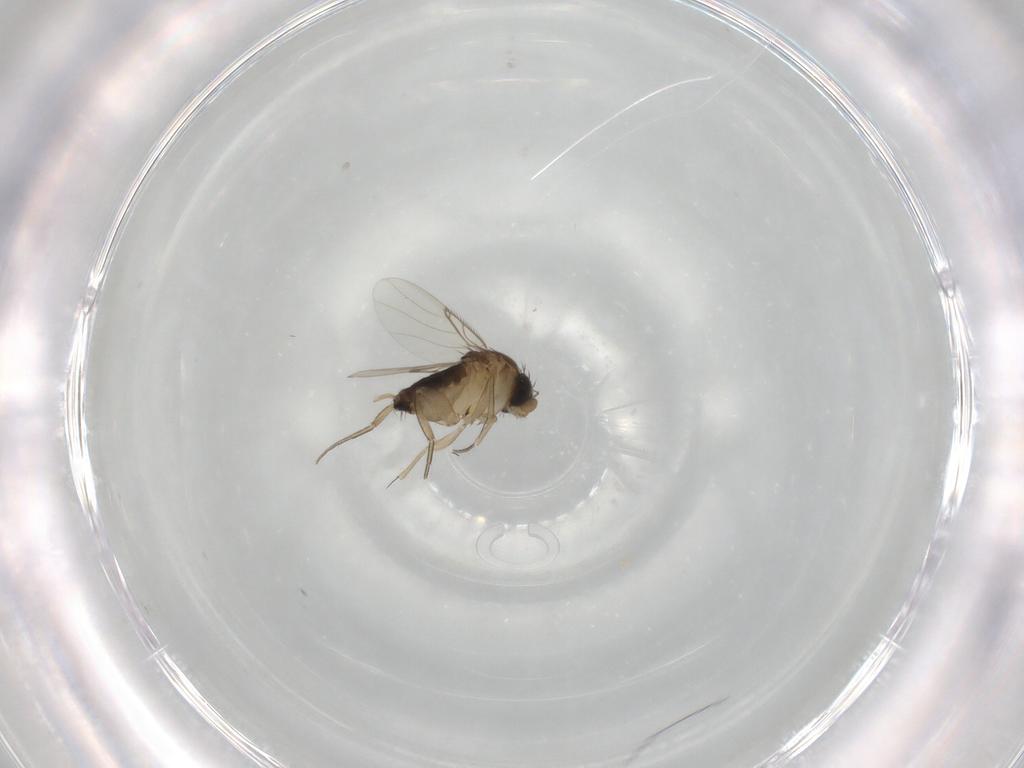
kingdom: Animalia
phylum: Arthropoda
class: Insecta
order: Diptera
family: Phoridae
